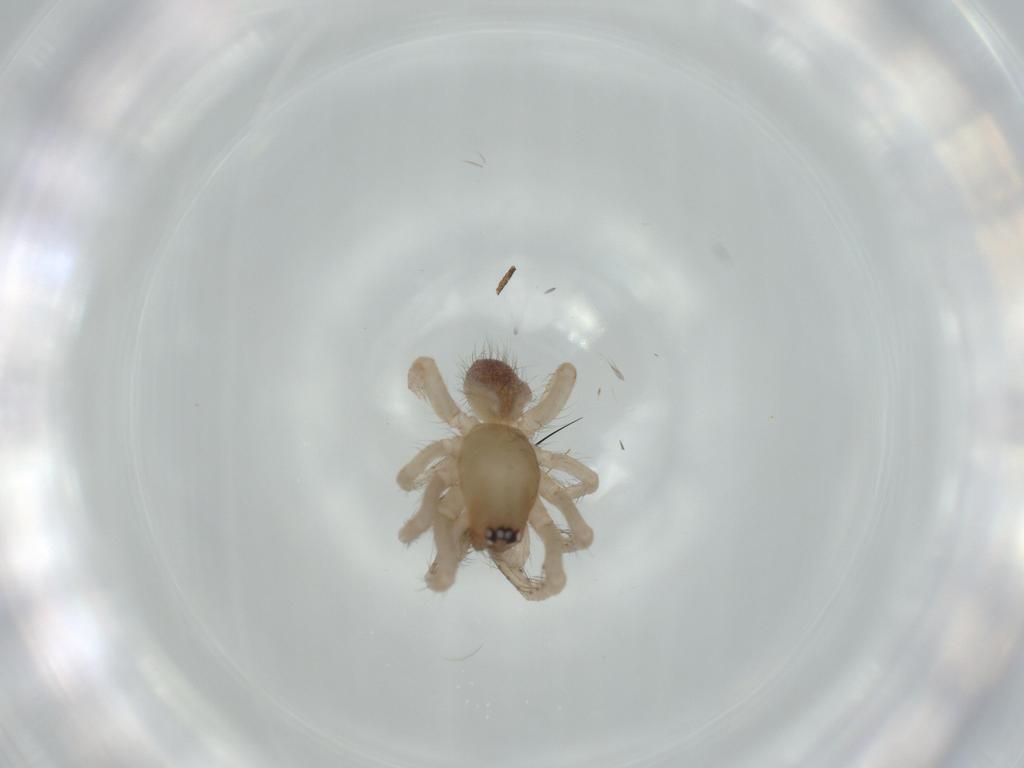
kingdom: Animalia
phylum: Arthropoda
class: Arachnida
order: Araneae
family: Segestriidae
